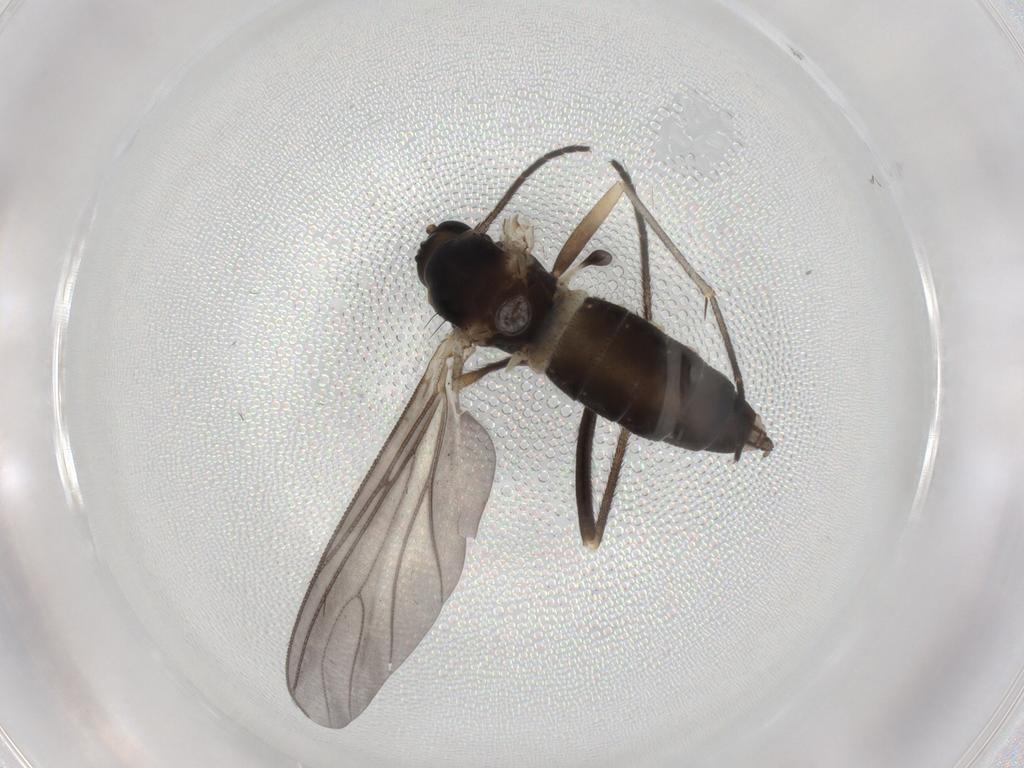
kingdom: Animalia
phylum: Arthropoda
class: Insecta
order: Diptera
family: Sciaridae
